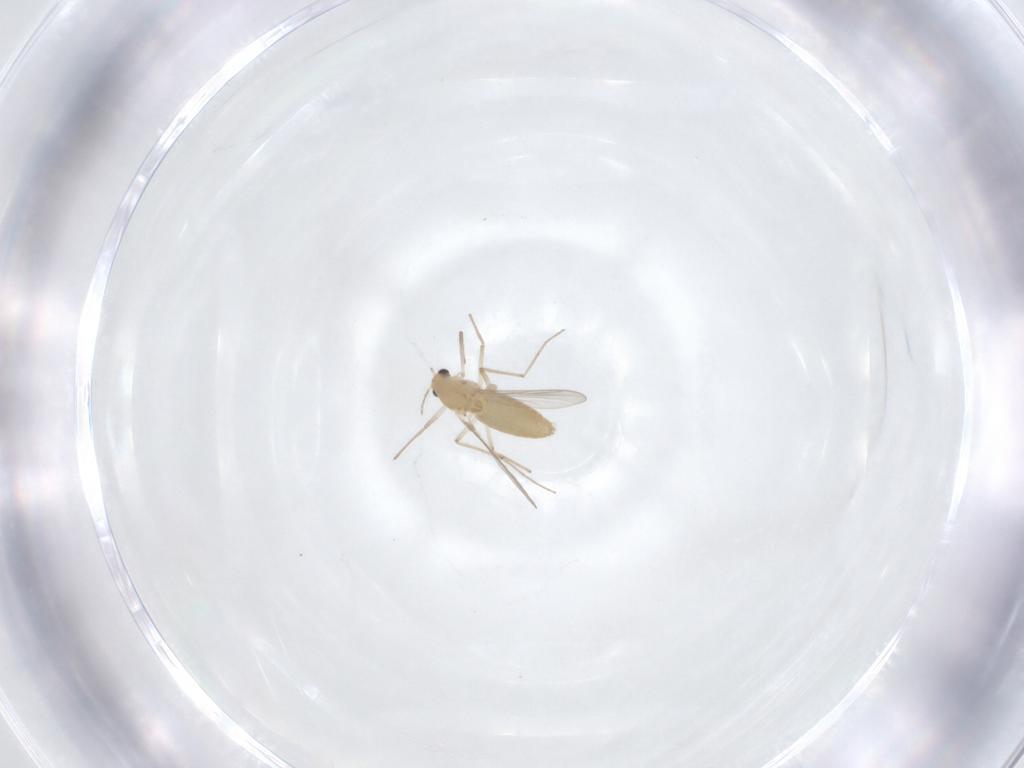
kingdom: Animalia
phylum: Arthropoda
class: Insecta
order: Diptera
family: Chironomidae
